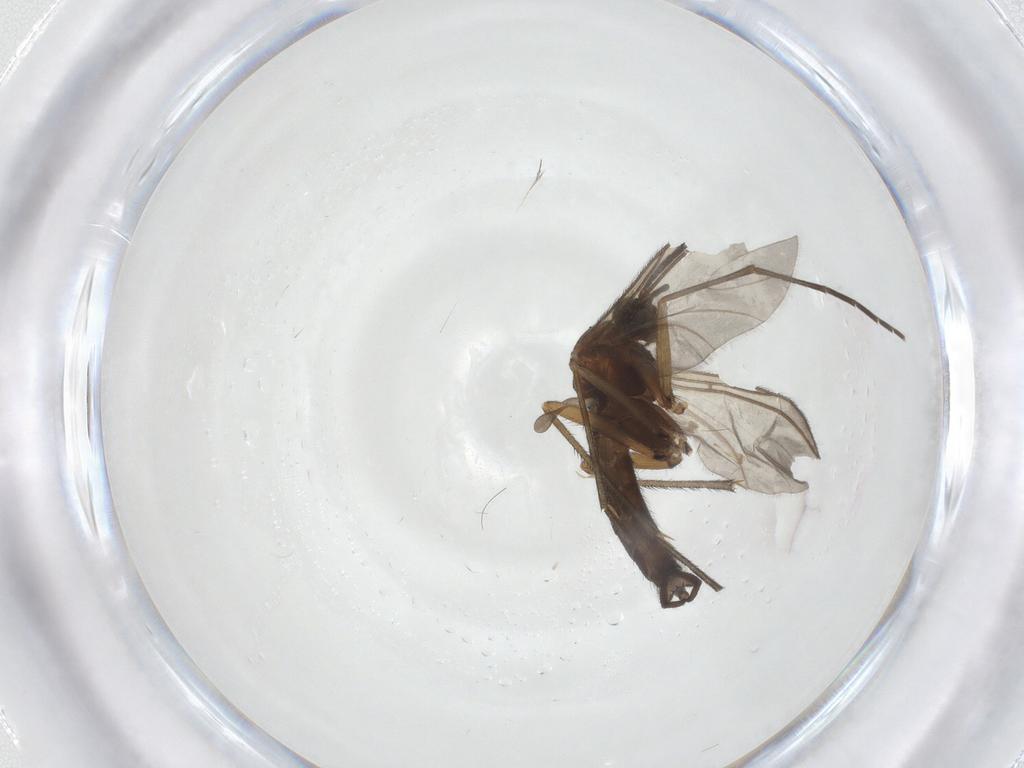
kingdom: Animalia
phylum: Arthropoda
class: Insecta
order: Diptera
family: Sciaridae
